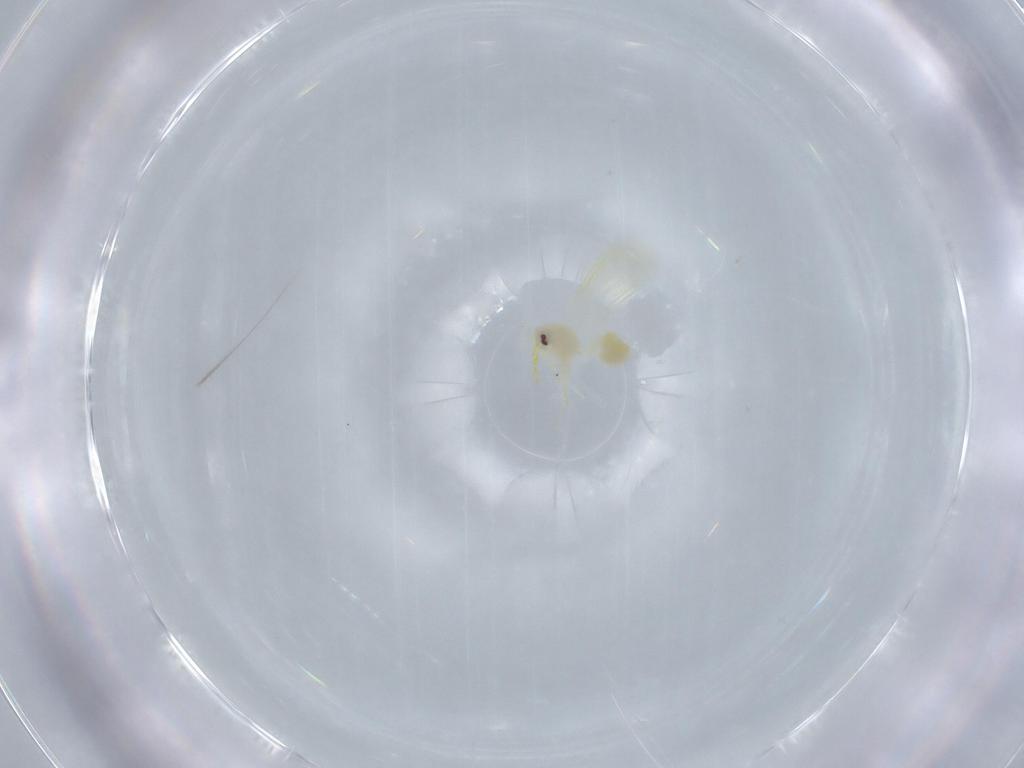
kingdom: Animalia
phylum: Arthropoda
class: Insecta
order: Hemiptera
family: Aleyrodidae
